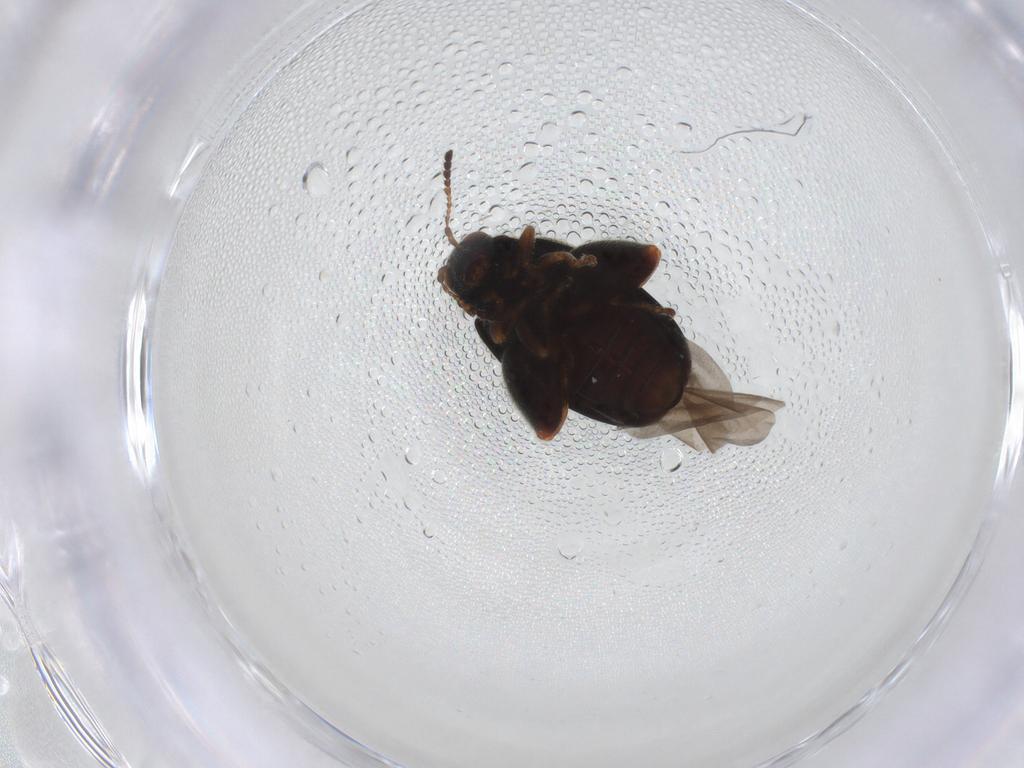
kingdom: Animalia
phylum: Arthropoda
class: Insecta
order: Coleoptera
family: Chrysomelidae
